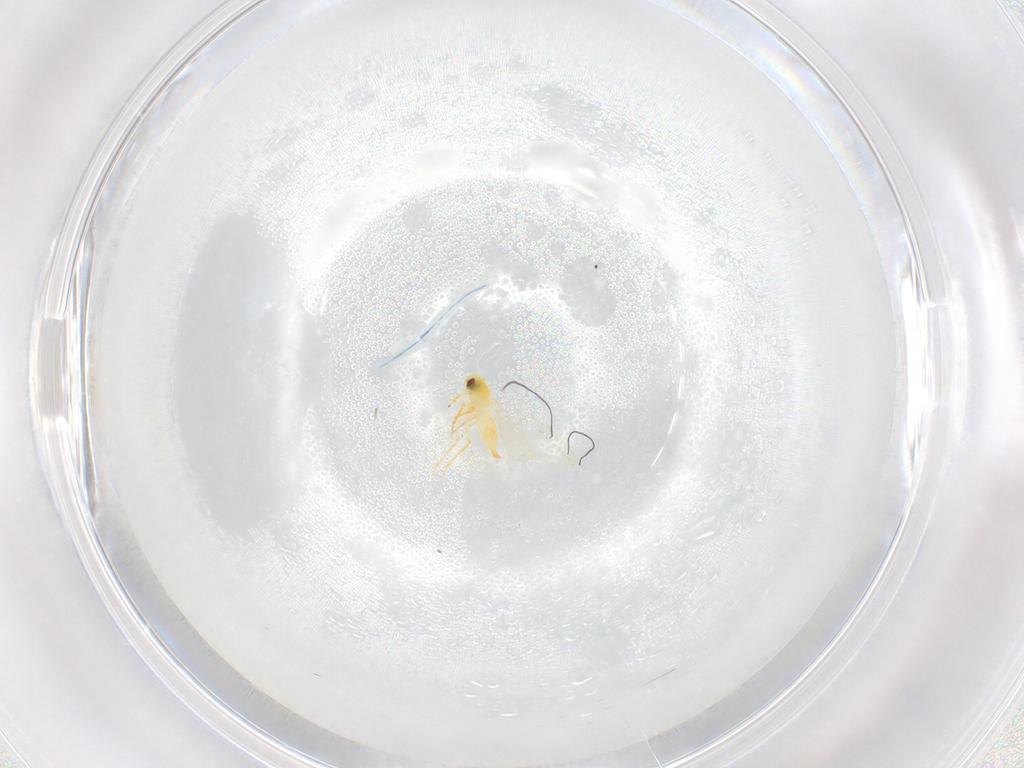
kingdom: Animalia
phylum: Arthropoda
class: Insecta
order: Hemiptera
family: Aleyrodidae
